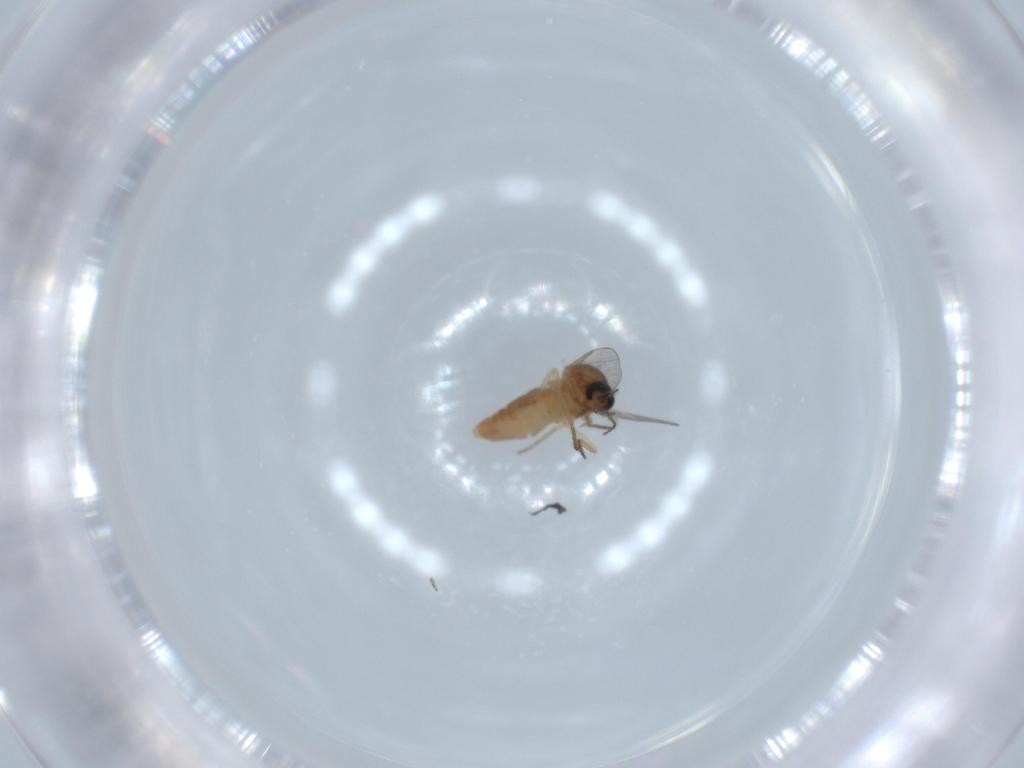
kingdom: Animalia
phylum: Arthropoda
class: Insecta
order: Diptera
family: Ceratopogonidae
